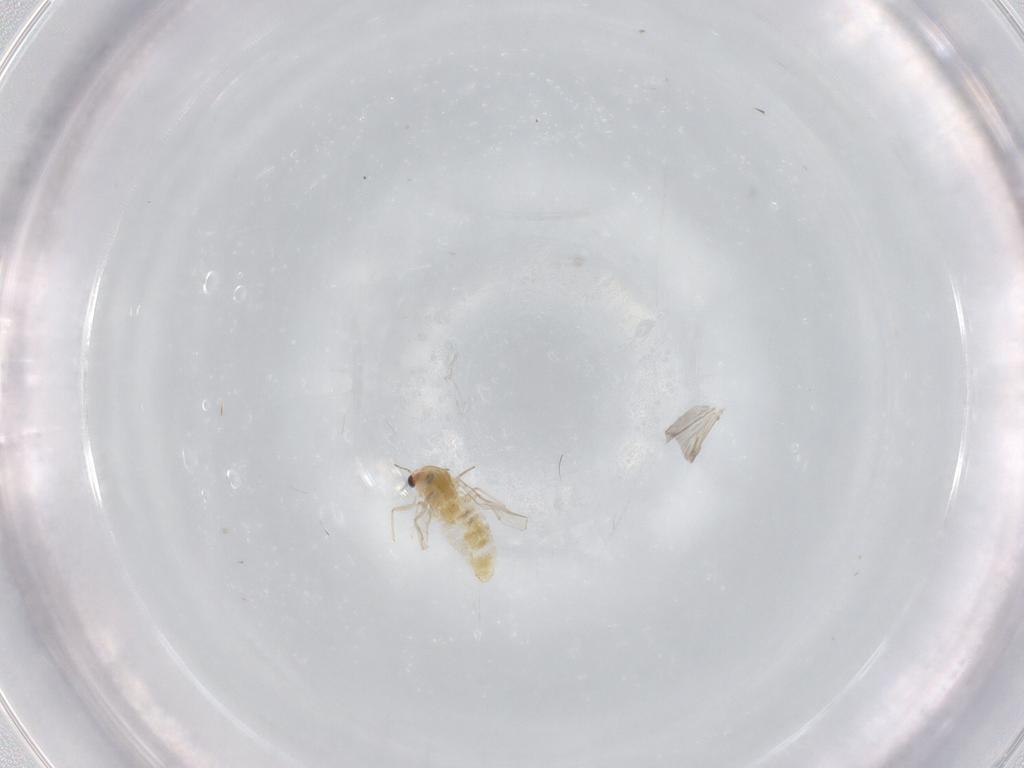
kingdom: Animalia
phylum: Arthropoda
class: Insecta
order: Diptera
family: Chironomidae
